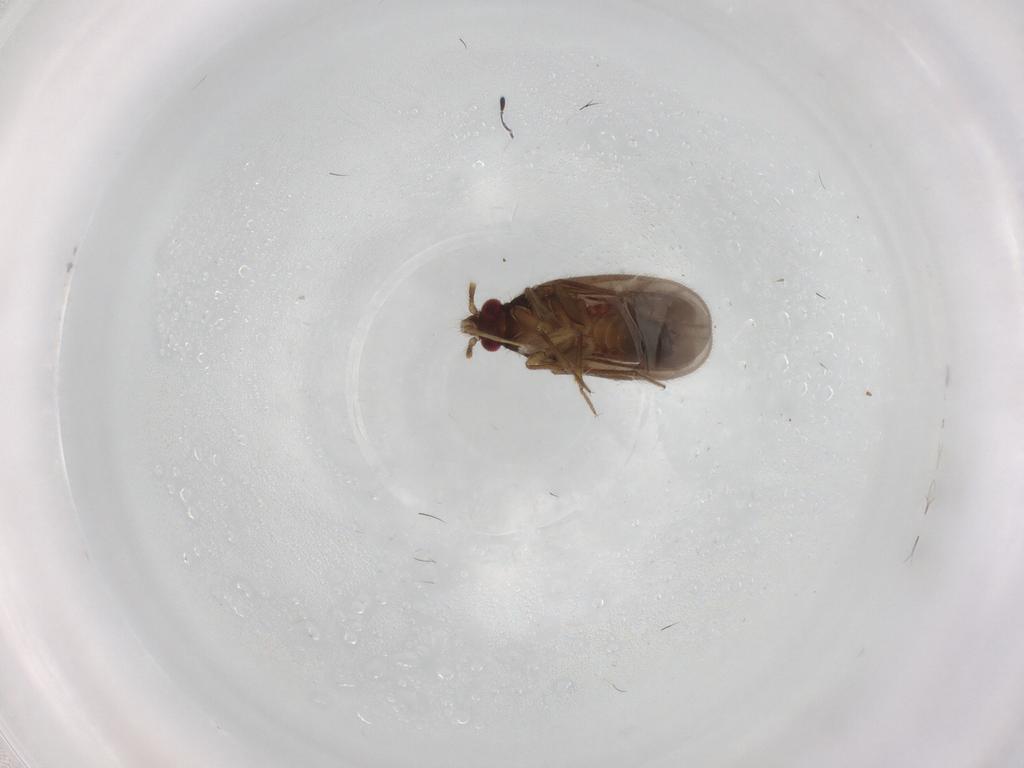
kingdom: Animalia
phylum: Arthropoda
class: Insecta
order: Hemiptera
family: Ceratocombidae
